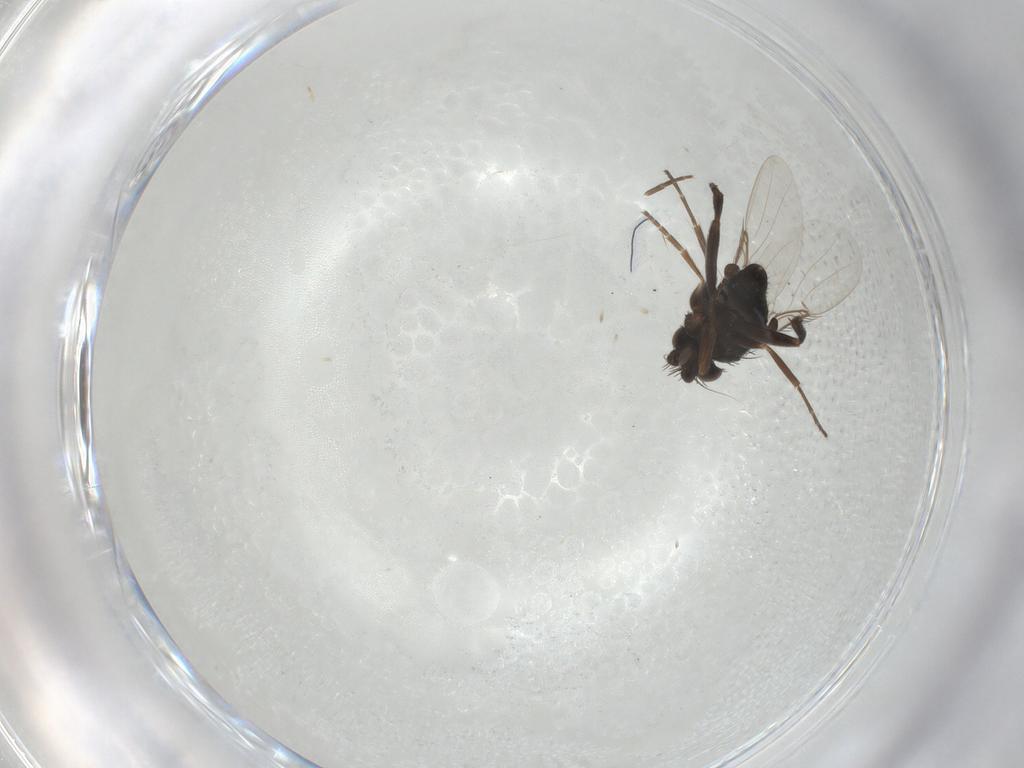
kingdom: Animalia
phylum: Arthropoda
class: Insecta
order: Diptera
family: Phoridae
